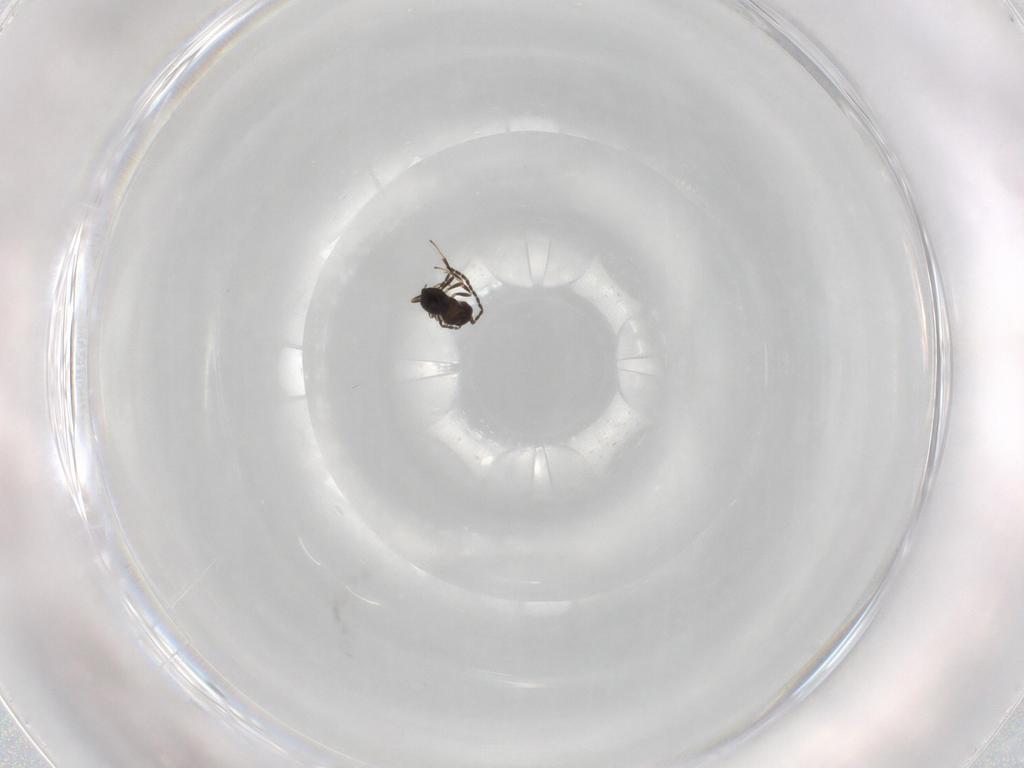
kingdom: Animalia
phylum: Arthropoda
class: Insecta
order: Hymenoptera
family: Scelionidae
